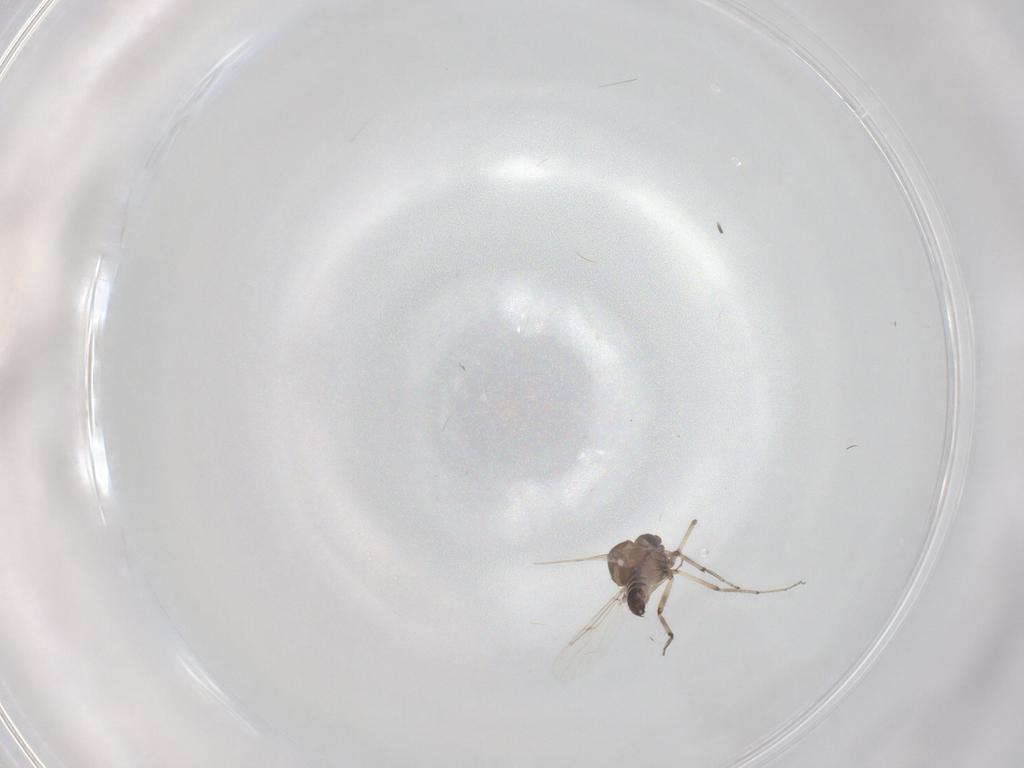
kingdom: Animalia
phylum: Arthropoda
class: Insecta
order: Diptera
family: Ceratopogonidae
